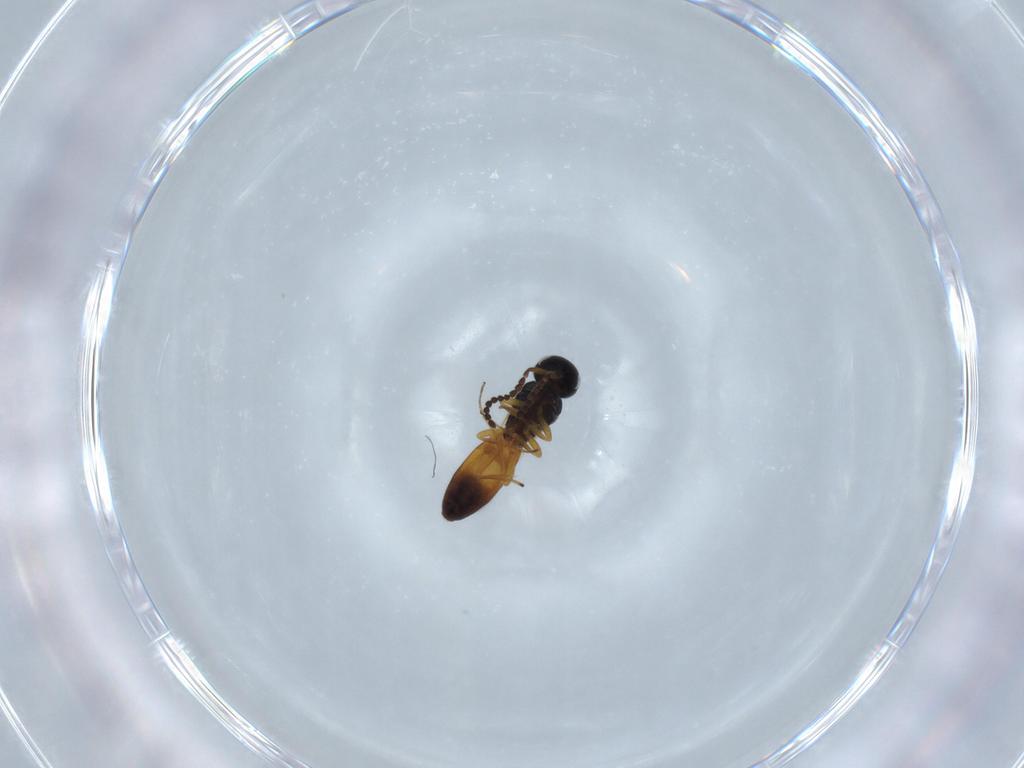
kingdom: Animalia
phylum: Arthropoda
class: Insecta
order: Hymenoptera
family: Scelionidae
